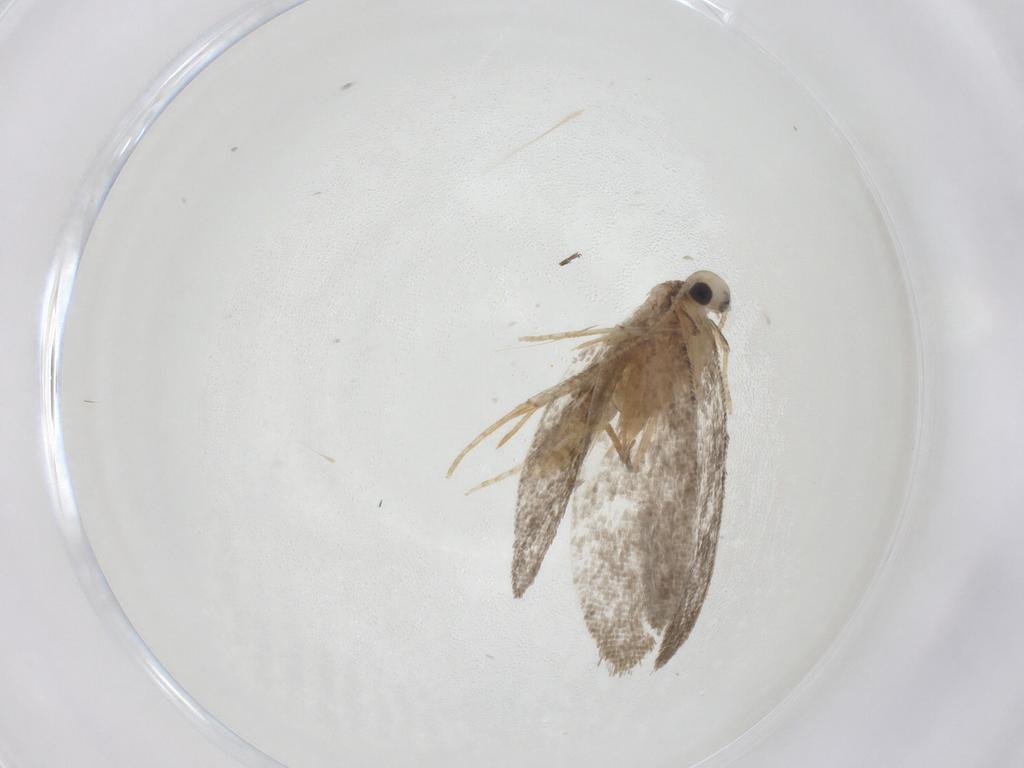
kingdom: Animalia
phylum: Arthropoda
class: Insecta
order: Lepidoptera
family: Psychidae
